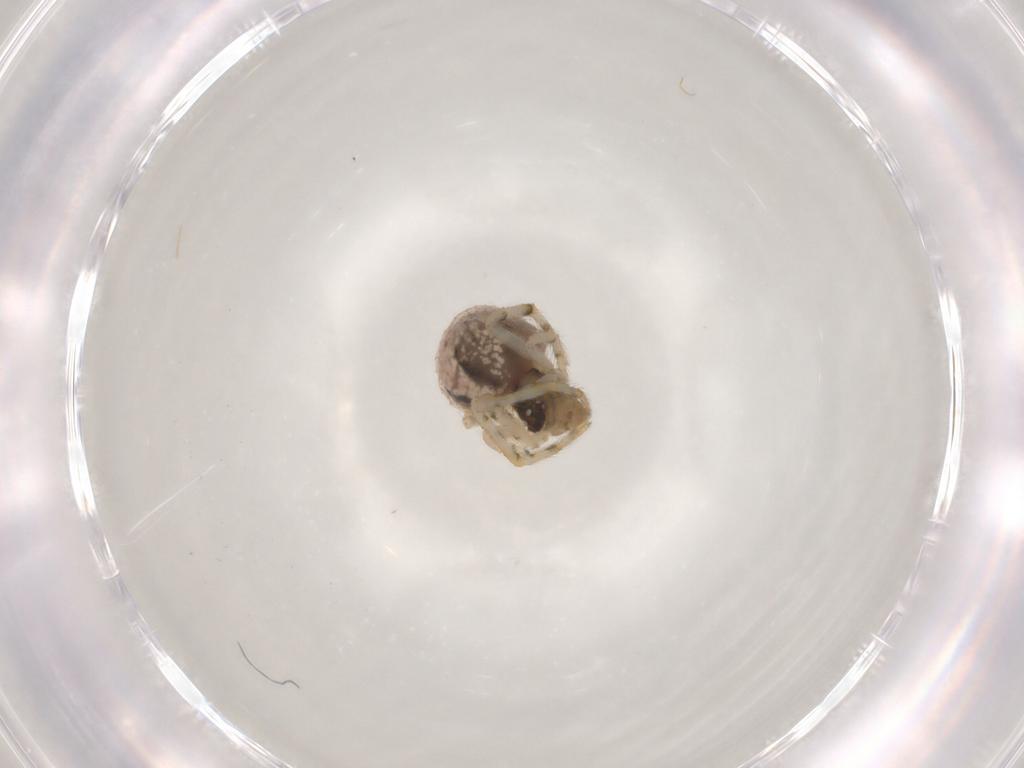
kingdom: Animalia
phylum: Arthropoda
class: Arachnida
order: Araneae
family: Theridiidae
